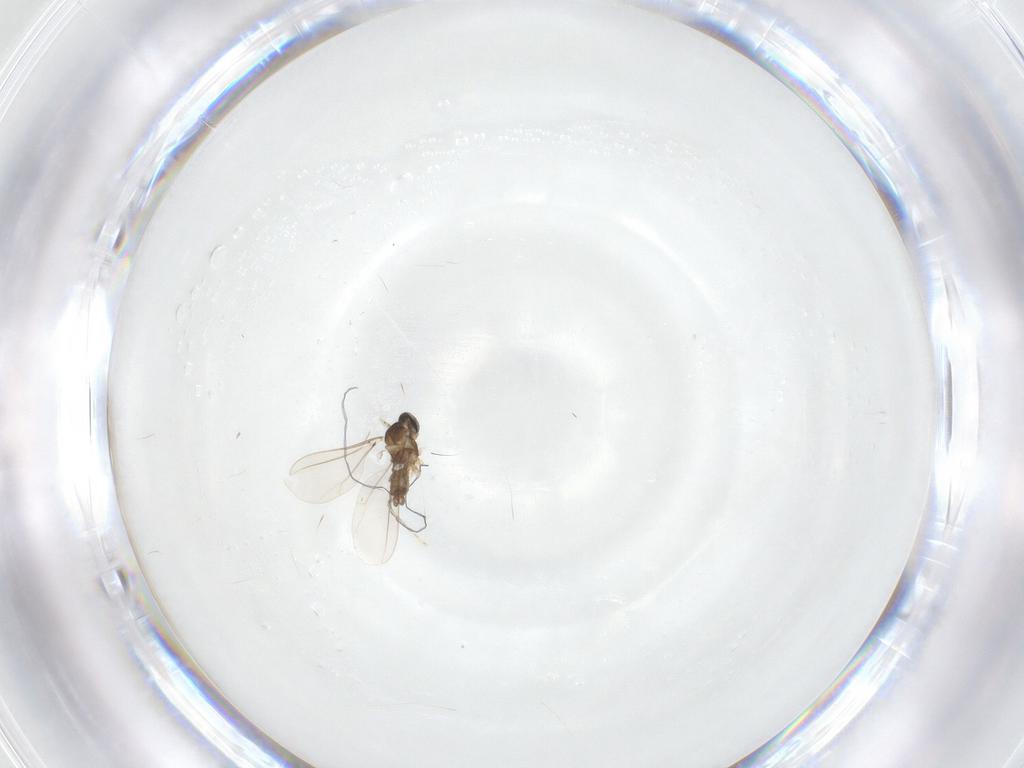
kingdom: Animalia
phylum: Arthropoda
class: Insecta
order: Diptera
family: Cecidomyiidae
